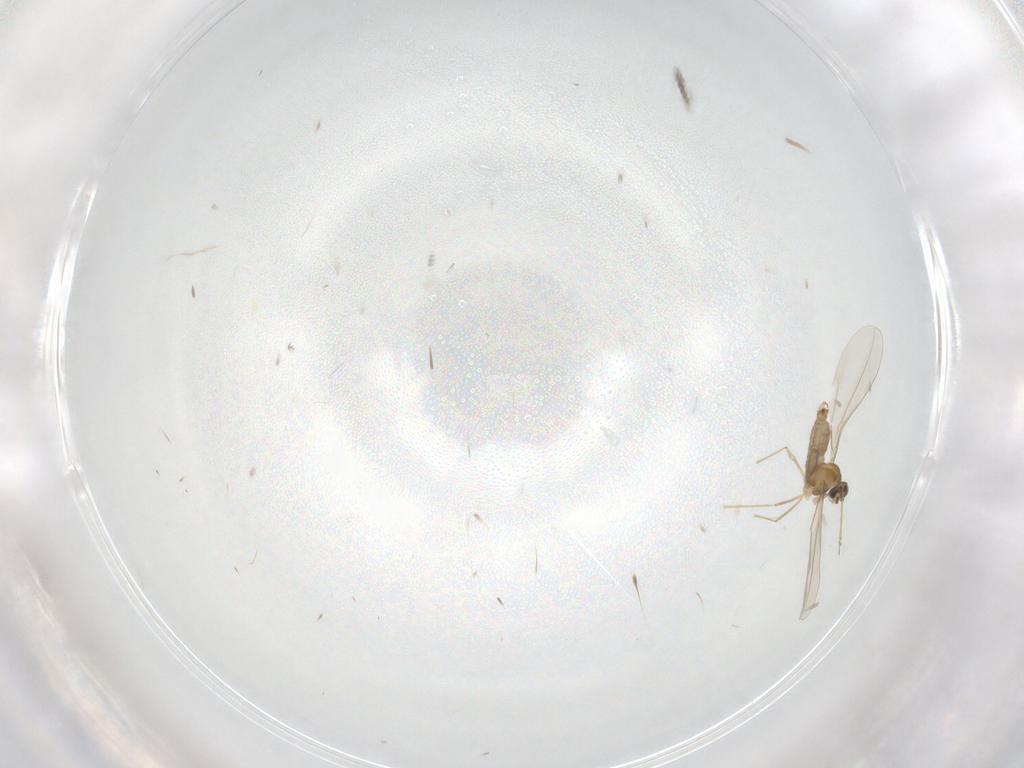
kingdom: Animalia
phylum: Arthropoda
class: Insecta
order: Diptera
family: Cecidomyiidae
